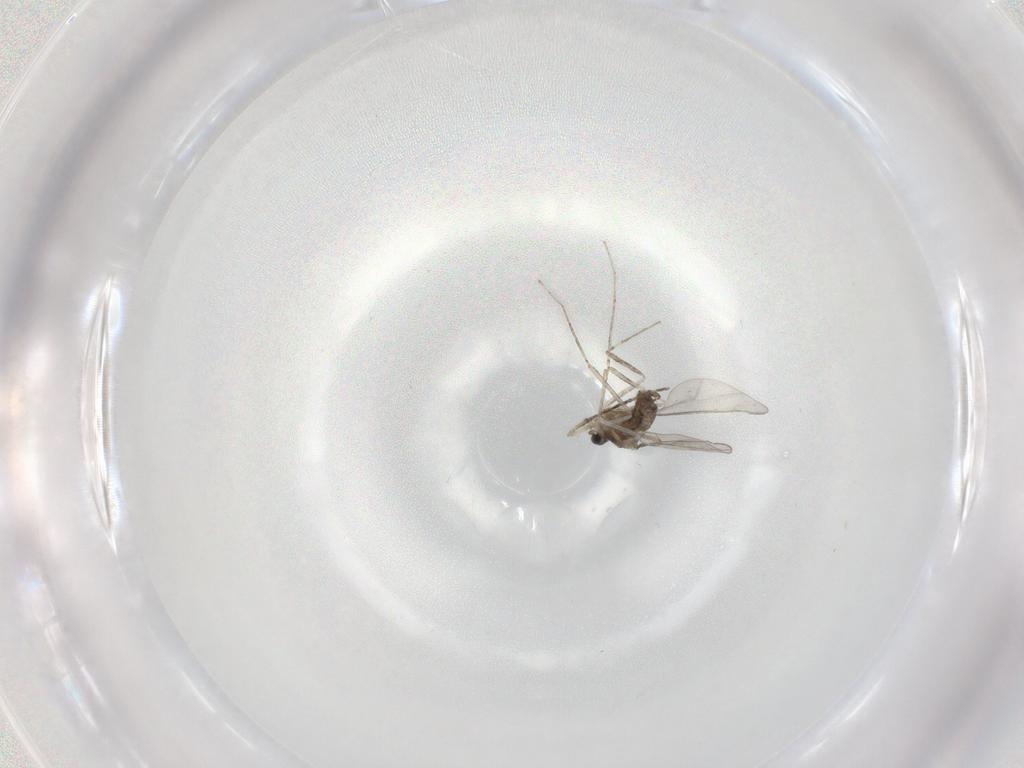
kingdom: Animalia
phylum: Arthropoda
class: Insecta
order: Diptera
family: Cecidomyiidae
